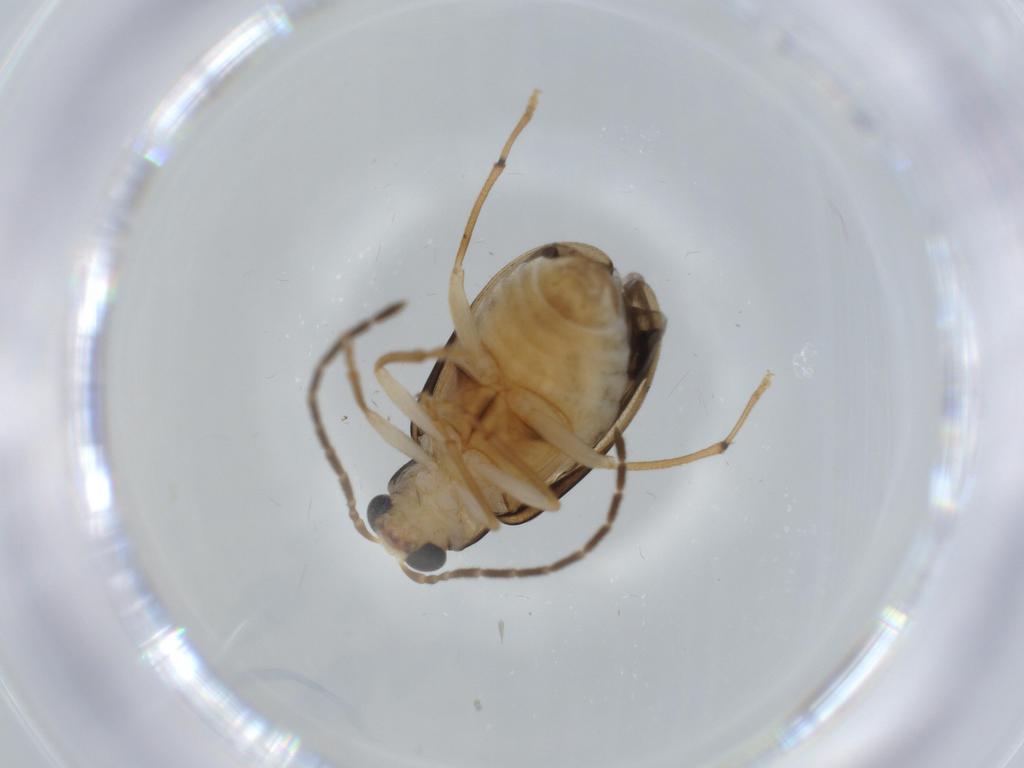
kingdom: Animalia
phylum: Arthropoda
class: Insecta
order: Coleoptera
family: Chrysomelidae
